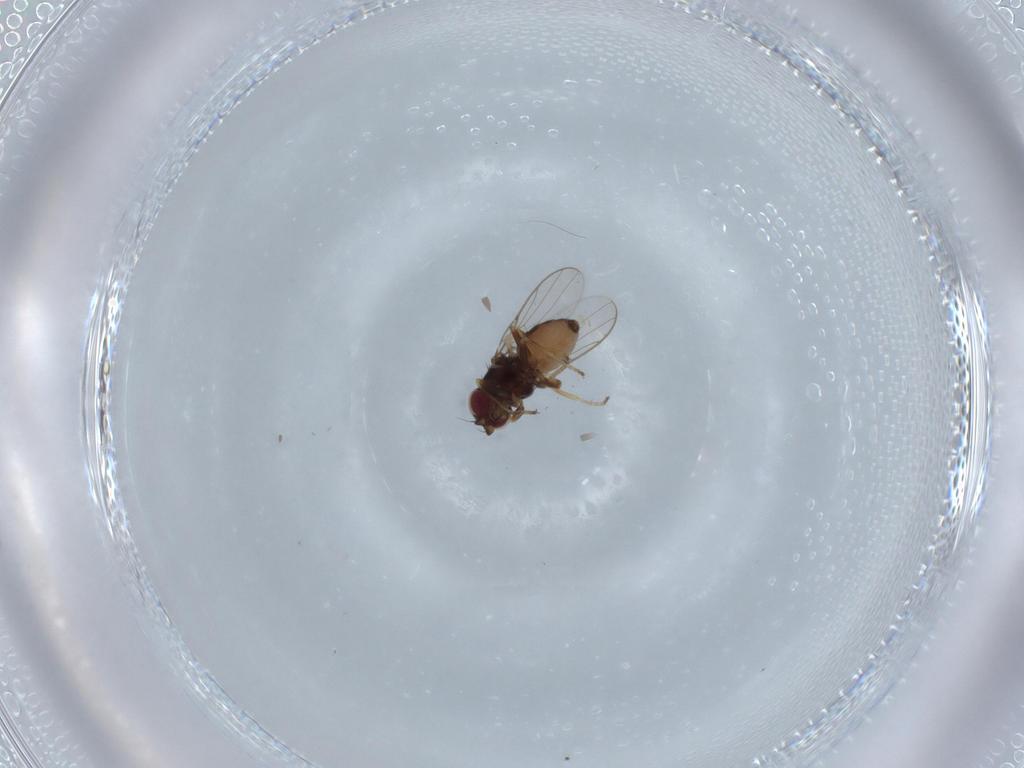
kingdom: Animalia
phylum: Arthropoda
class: Insecta
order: Diptera
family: Chloropidae
